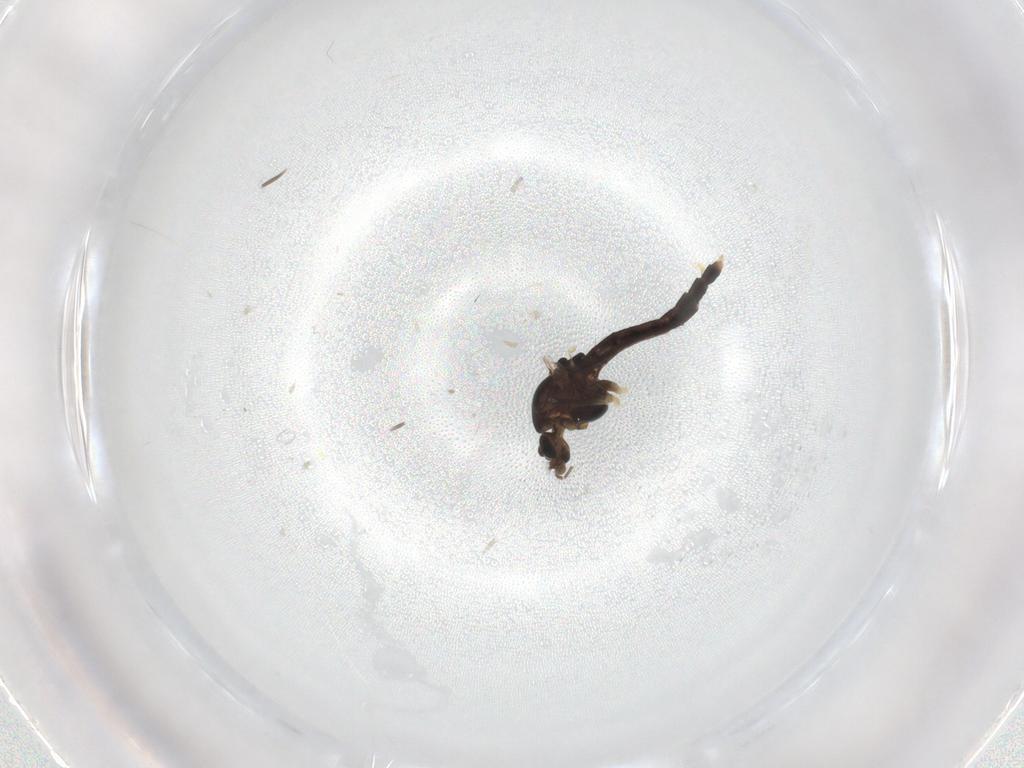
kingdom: Animalia
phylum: Arthropoda
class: Insecta
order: Diptera
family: Chironomidae
